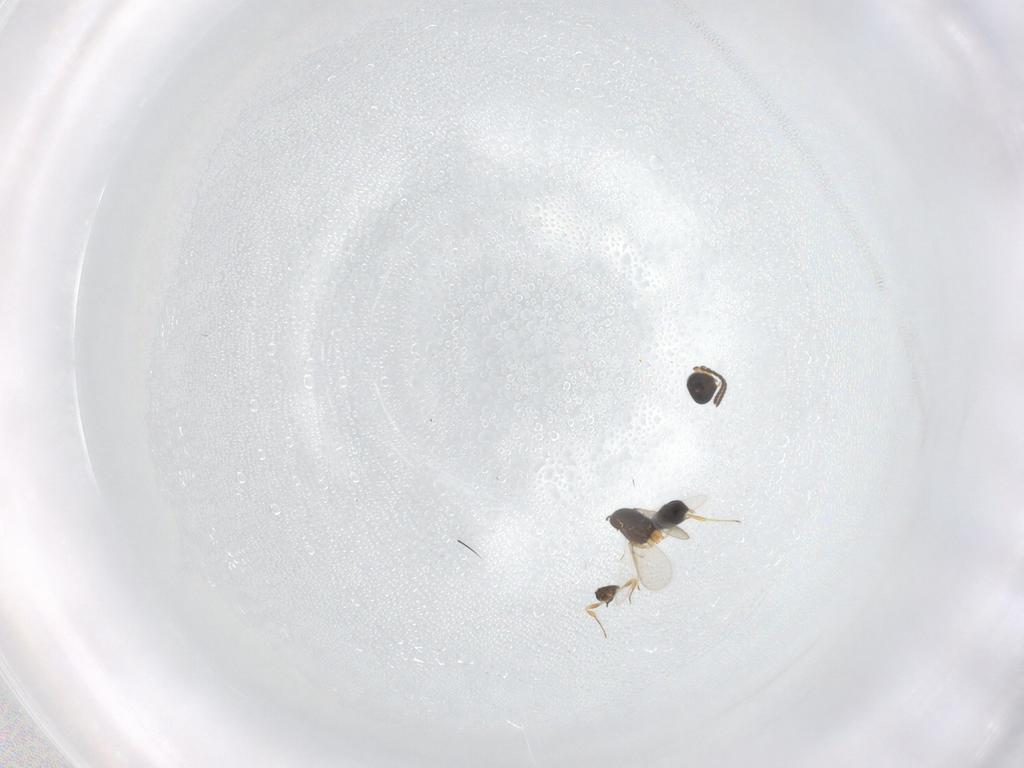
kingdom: Animalia
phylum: Arthropoda
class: Insecta
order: Hymenoptera
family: Scelionidae
